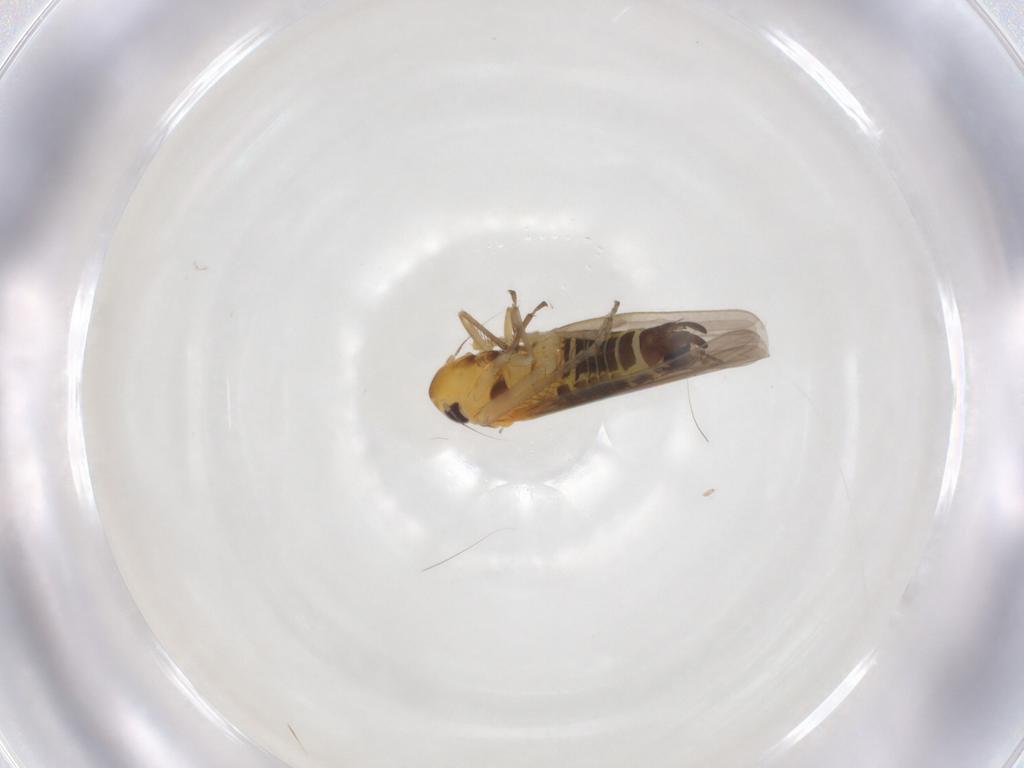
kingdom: Animalia
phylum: Arthropoda
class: Insecta
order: Hemiptera
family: Cicadellidae
